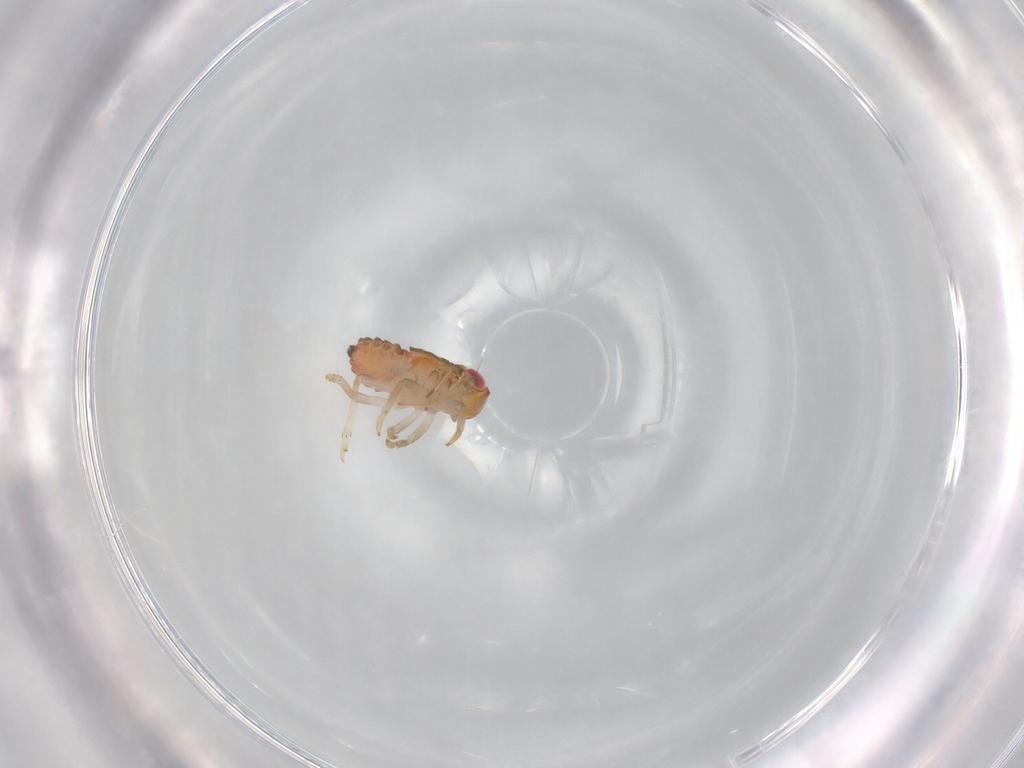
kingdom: Animalia
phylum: Arthropoda
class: Insecta
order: Hemiptera
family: Issidae
